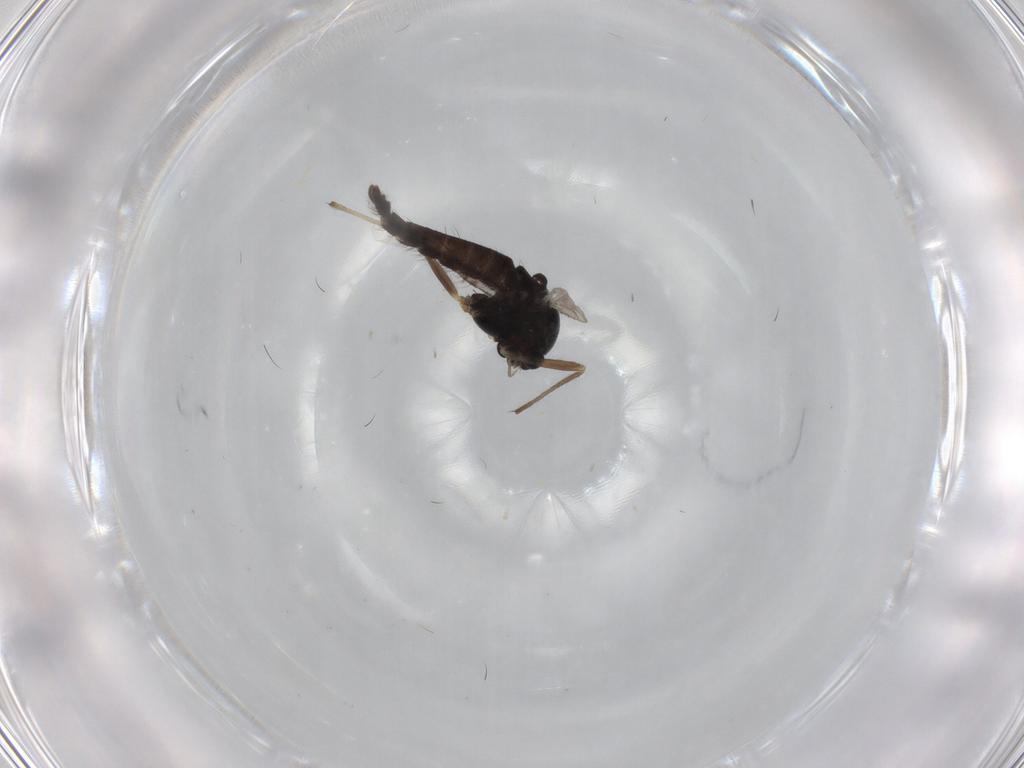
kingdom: Animalia
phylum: Arthropoda
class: Insecta
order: Diptera
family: Chironomidae
